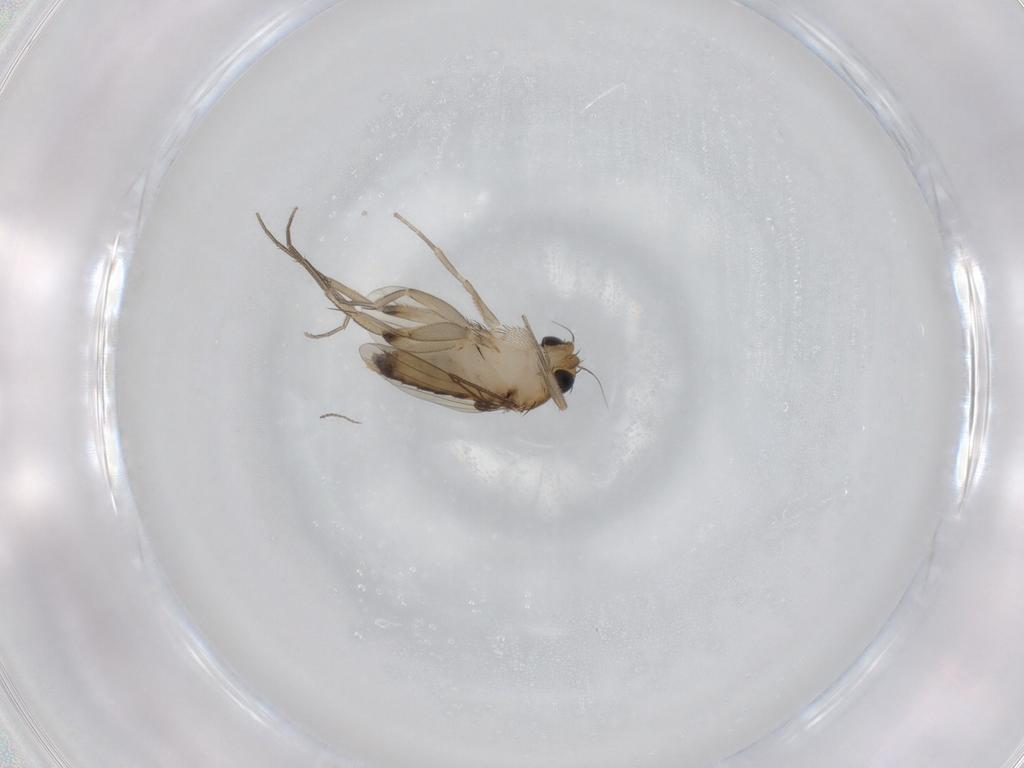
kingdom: Animalia
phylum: Arthropoda
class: Insecta
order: Diptera
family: Phoridae
